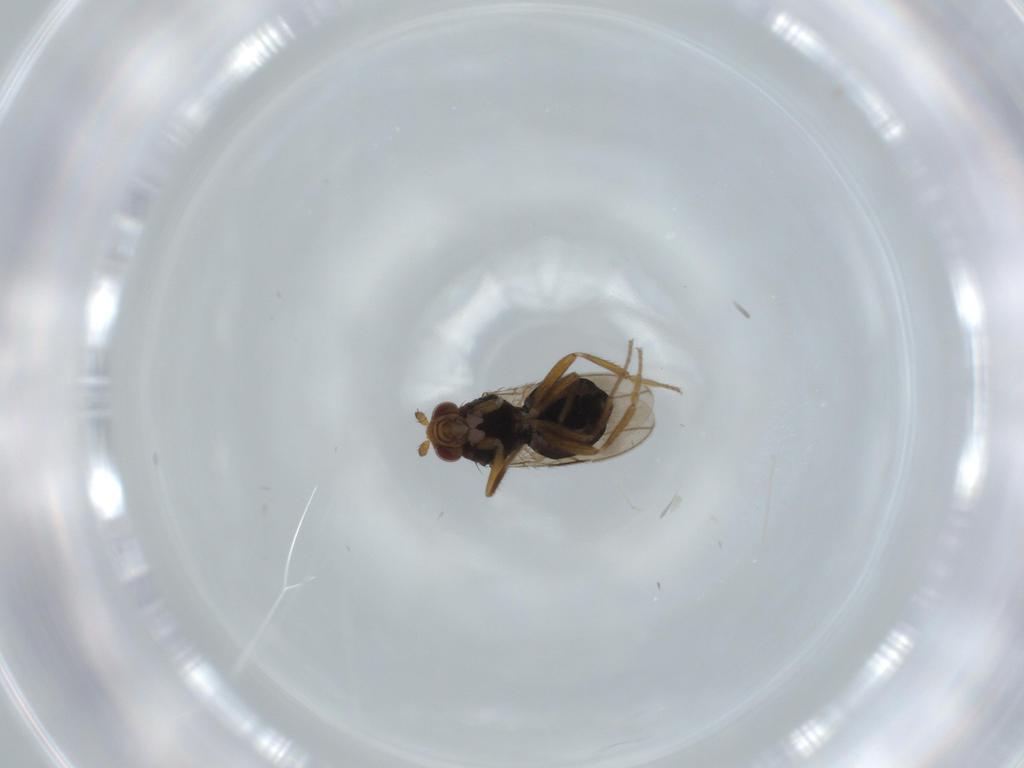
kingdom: Animalia
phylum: Arthropoda
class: Insecta
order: Diptera
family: Sphaeroceridae
